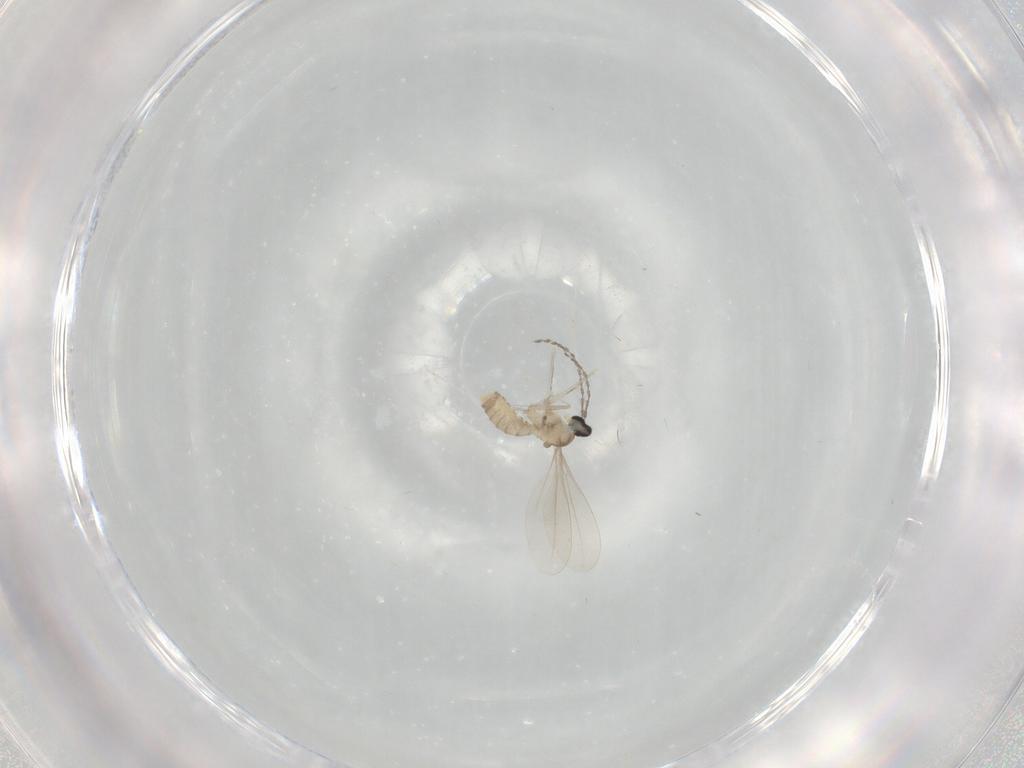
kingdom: Animalia
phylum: Arthropoda
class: Insecta
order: Diptera
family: Cecidomyiidae
